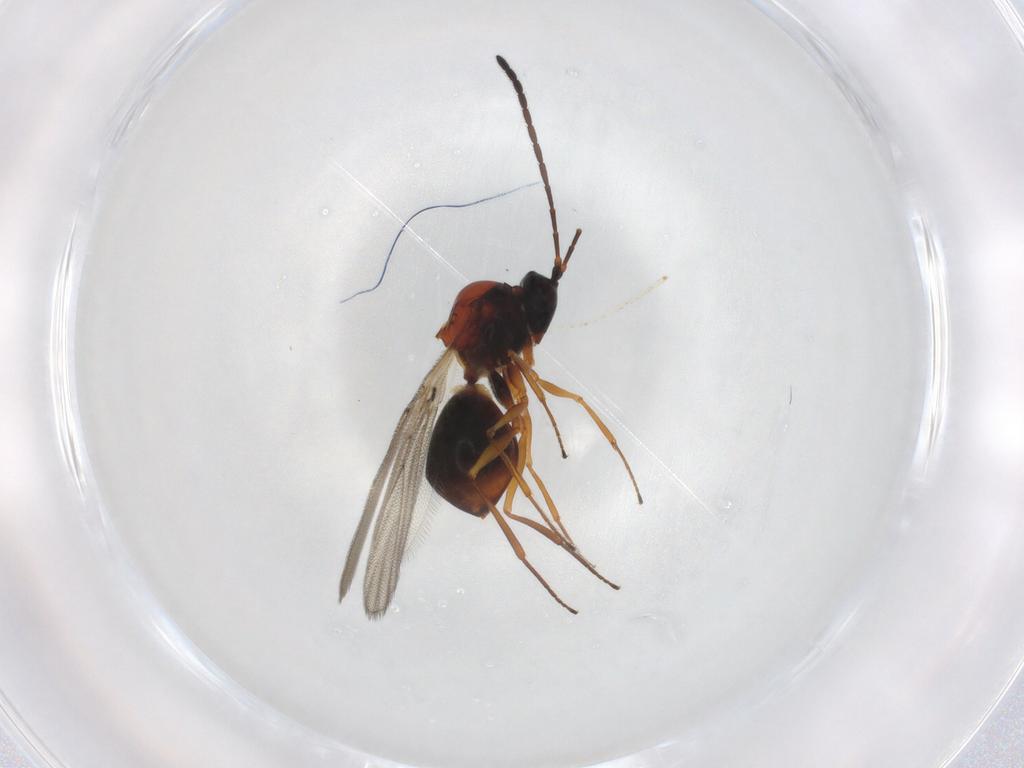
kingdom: Animalia
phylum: Arthropoda
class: Insecta
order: Hymenoptera
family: Figitidae
